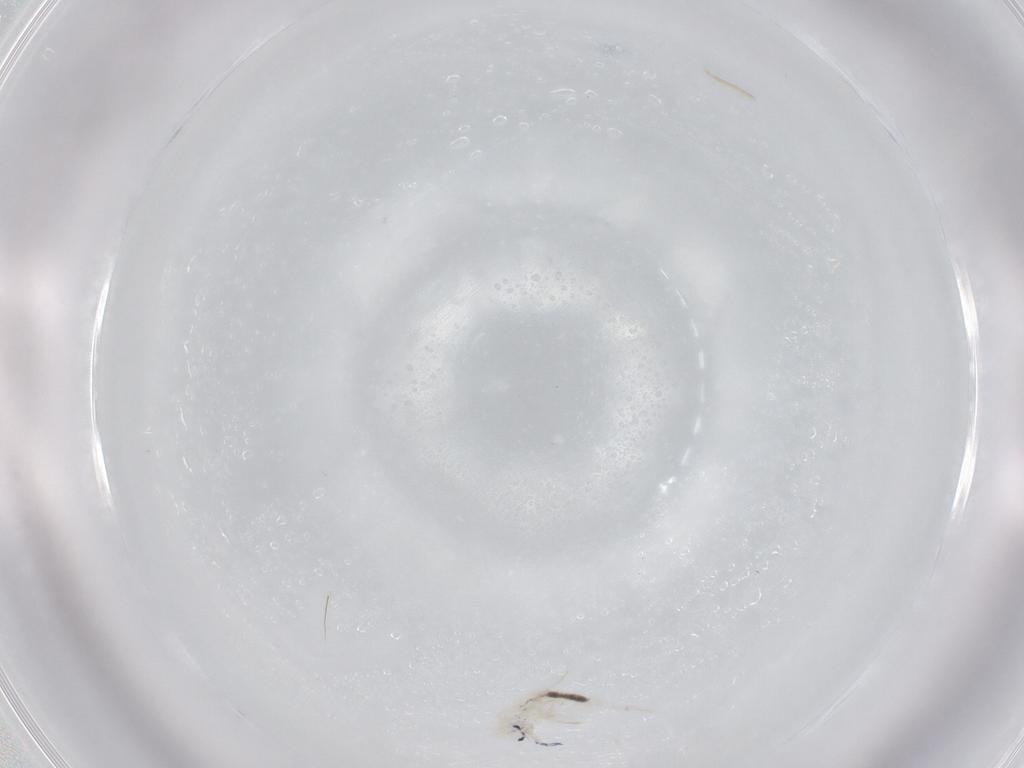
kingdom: Animalia
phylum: Arthropoda
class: Collembola
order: Entomobryomorpha
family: Entomobryidae
